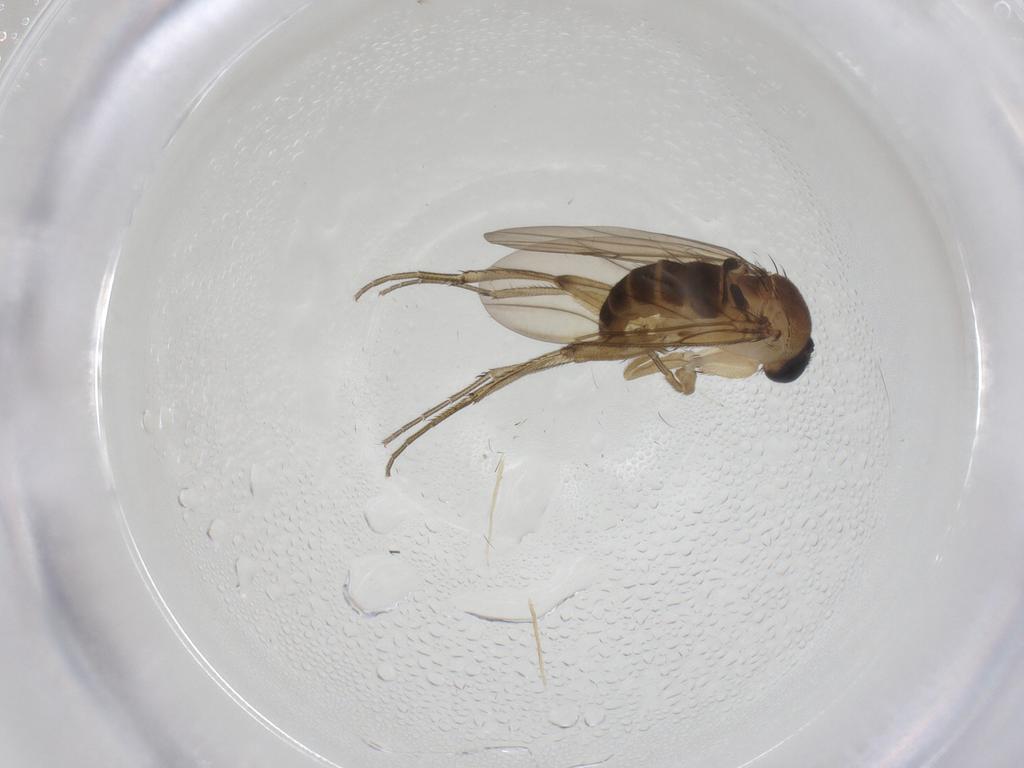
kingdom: Animalia
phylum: Arthropoda
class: Insecta
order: Diptera
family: Phoridae
